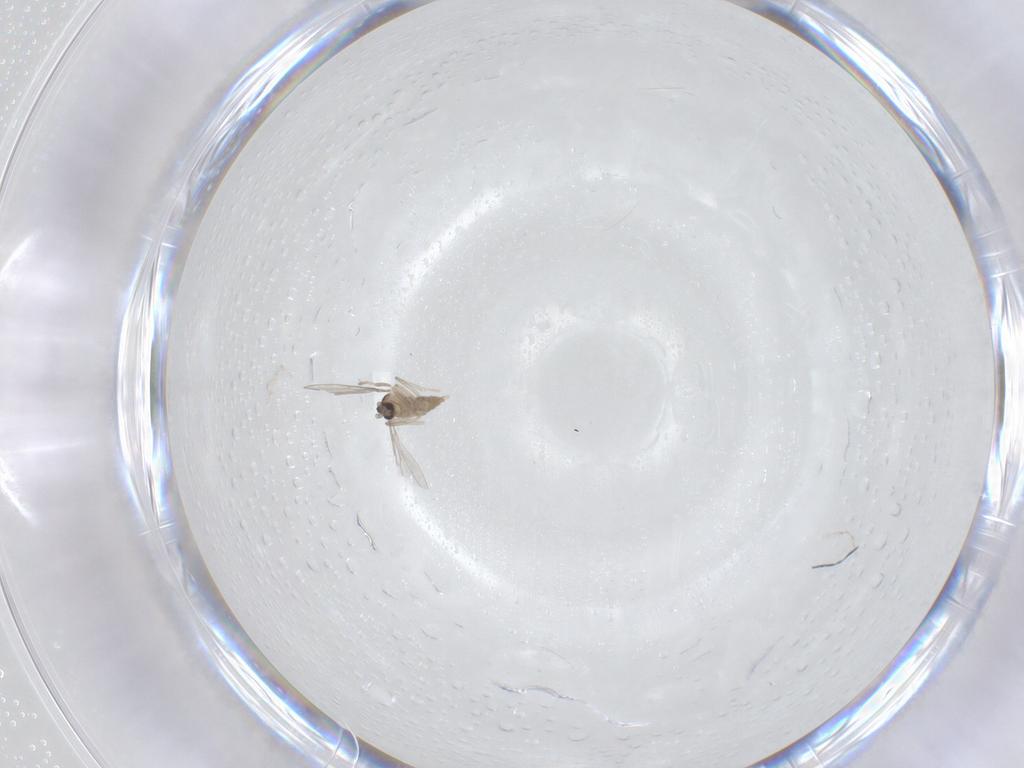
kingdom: Animalia
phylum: Arthropoda
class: Insecta
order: Diptera
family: Cecidomyiidae
